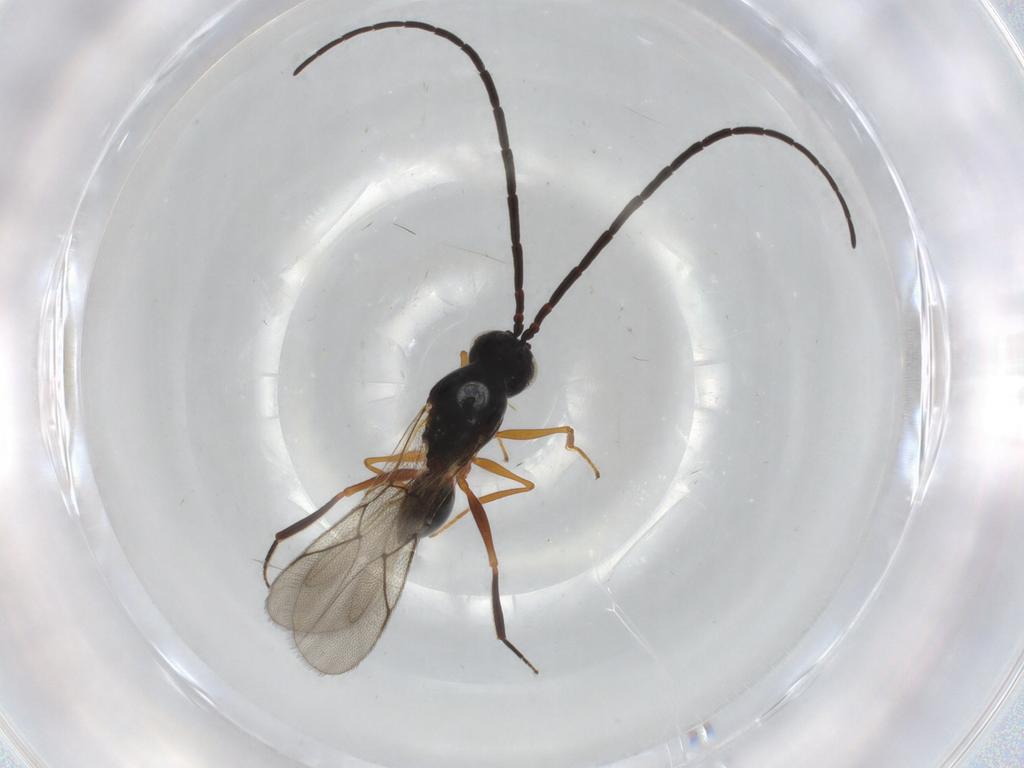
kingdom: Animalia
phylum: Arthropoda
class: Insecta
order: Hymenoptera
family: Figitidae
